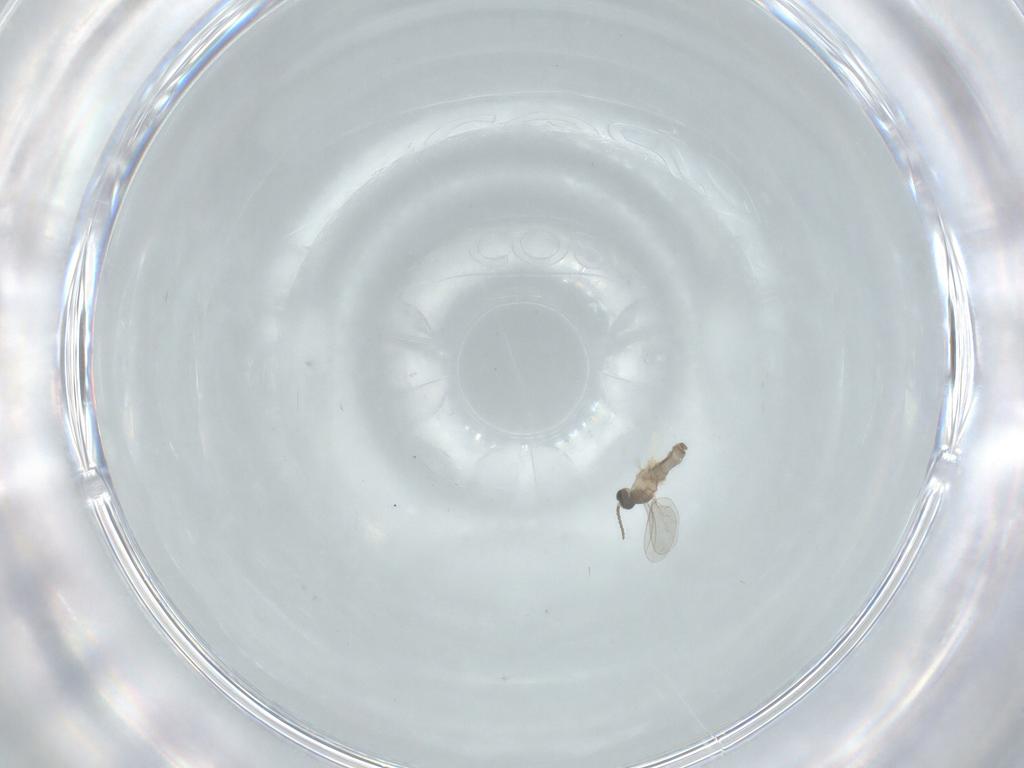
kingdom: Animalia
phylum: Arthropoda
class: Insecta
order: Diptera
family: Cecidomyiidae
